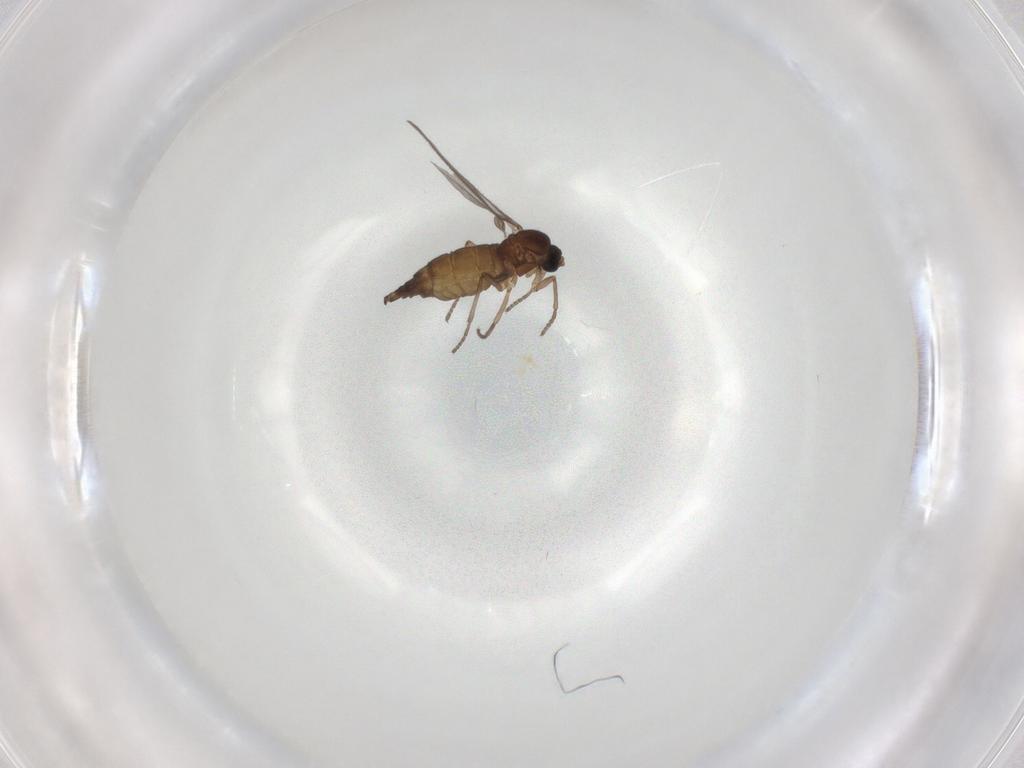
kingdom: Animalia
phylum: Arthropoda
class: Insecta
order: Diptera
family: Sciaridae
